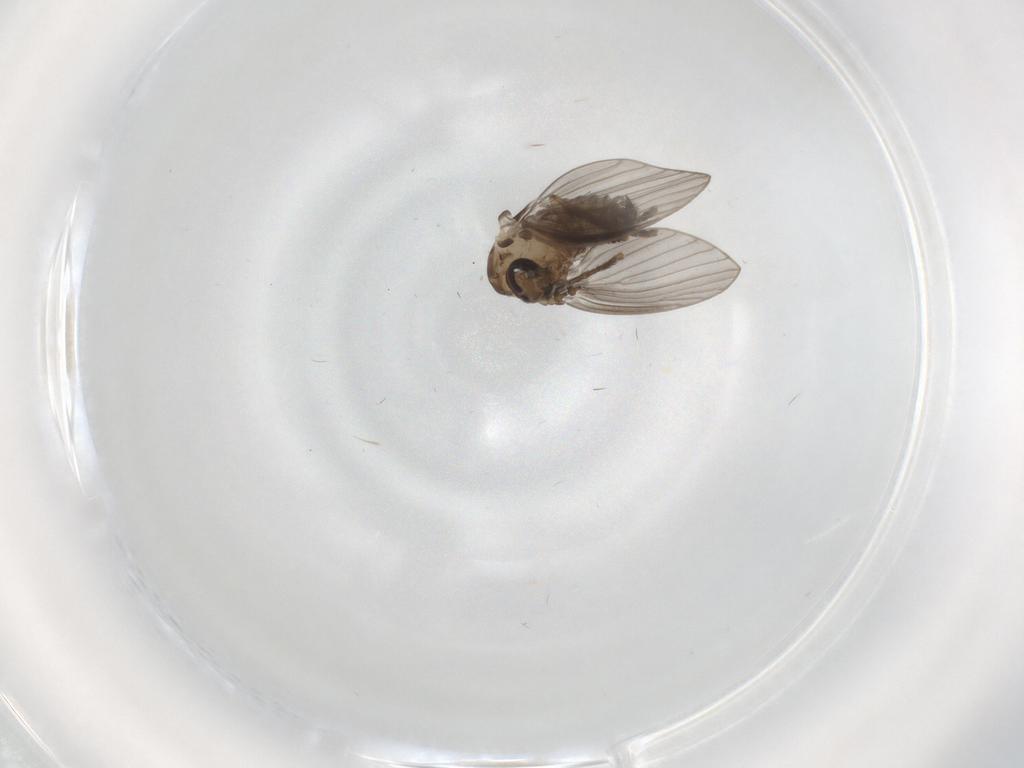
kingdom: Animalia
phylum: Arthropoda
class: Insecta
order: Diptera
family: Psychodidae
